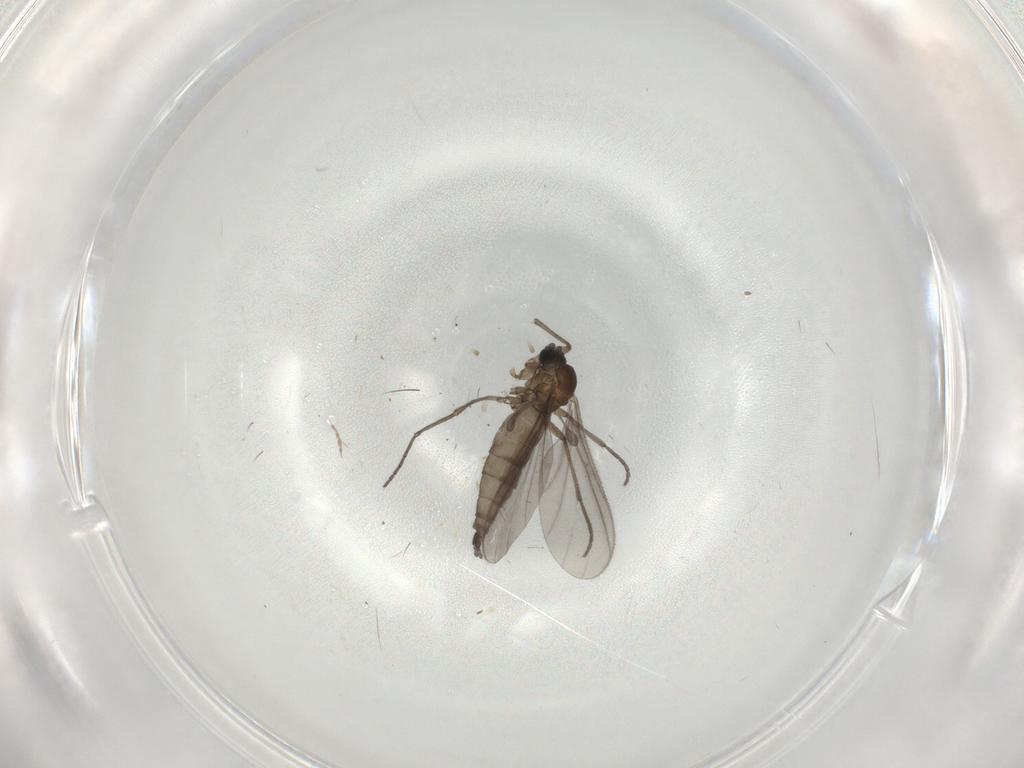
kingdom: Animalia
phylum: Arthropoda
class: Insecta
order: Diptera
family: Sciaridae
